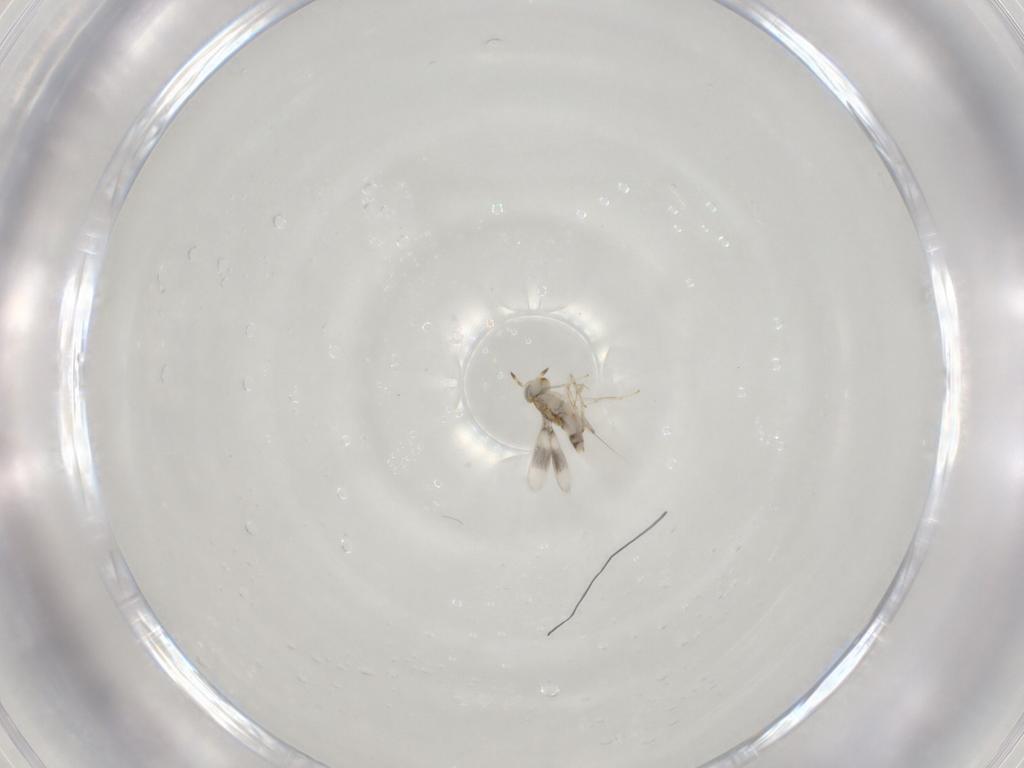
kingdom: Animalia
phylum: Arthropoda
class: Insecta
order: Hymenoptera
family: Aphelinidae
